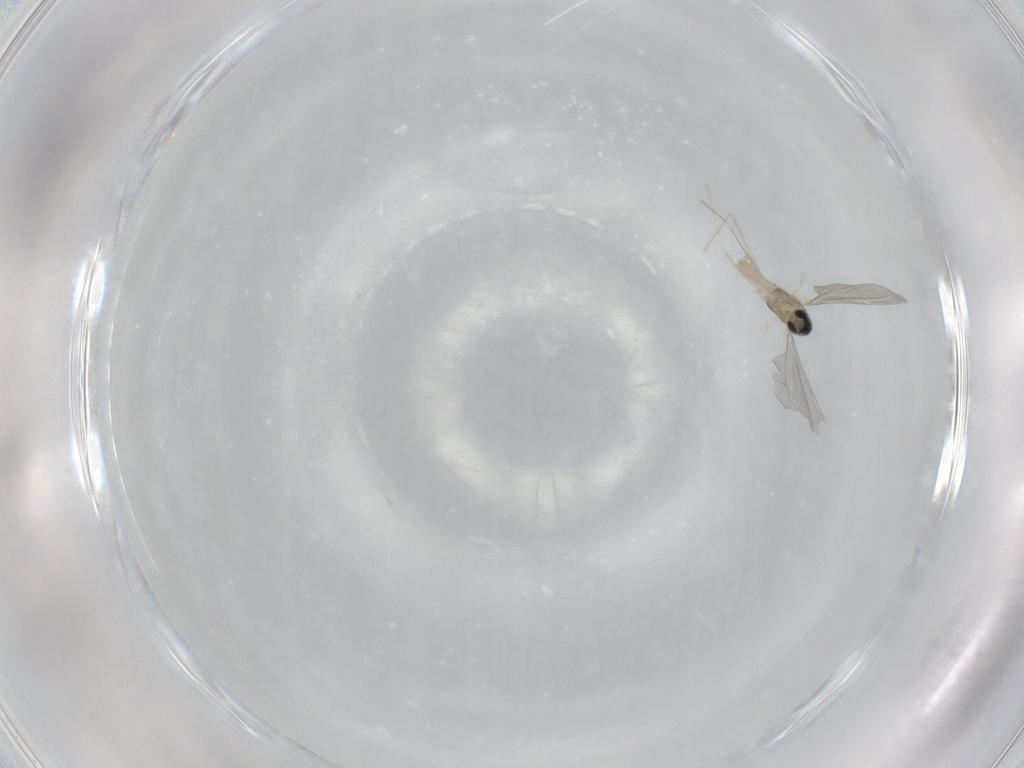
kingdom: Animalia
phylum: Arthropoda
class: Insecta
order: Diptera
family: Cecidomyiidae
